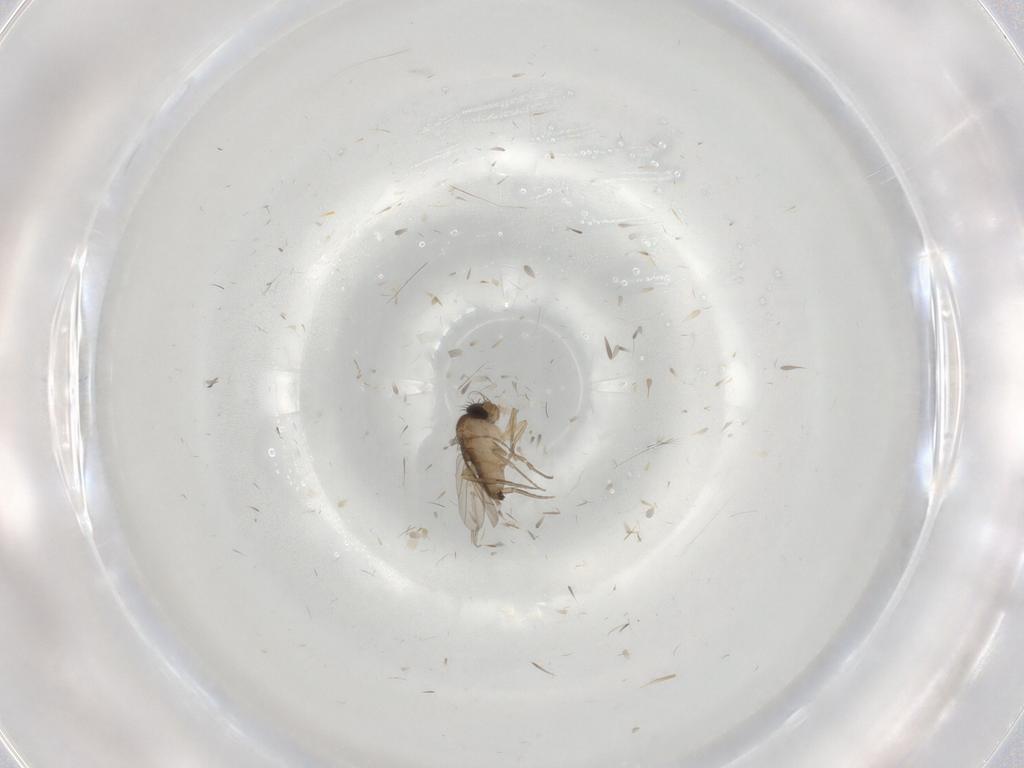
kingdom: Animalia
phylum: Arthropoda
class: Insecta
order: Diptera
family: Phoridae
